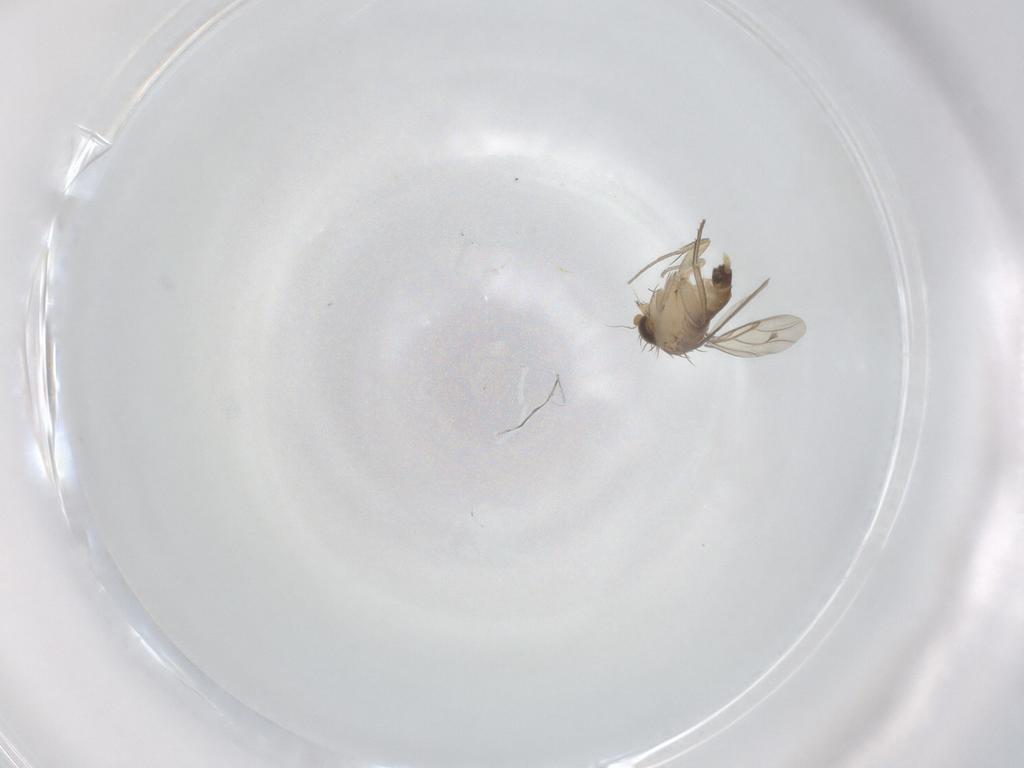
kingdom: Animalia
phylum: Arthropoda
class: Insecta
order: Diptera
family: Phoridae
